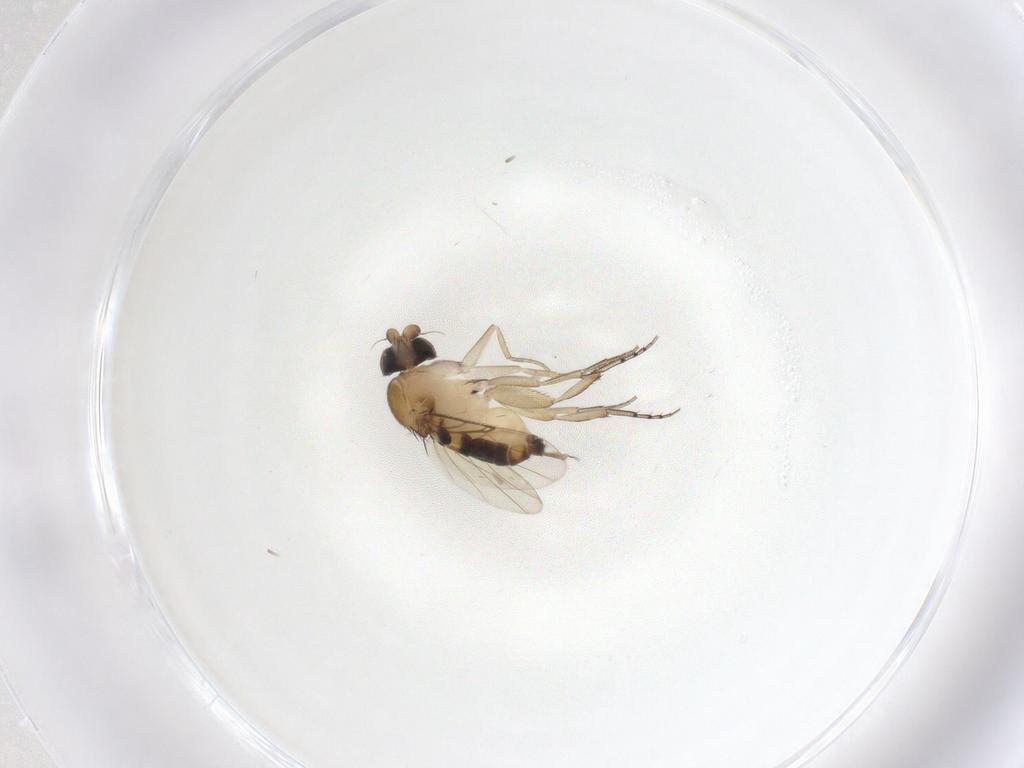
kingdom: Animalia
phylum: Arthropoda
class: Insecta
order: Diptera
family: Phoridae
